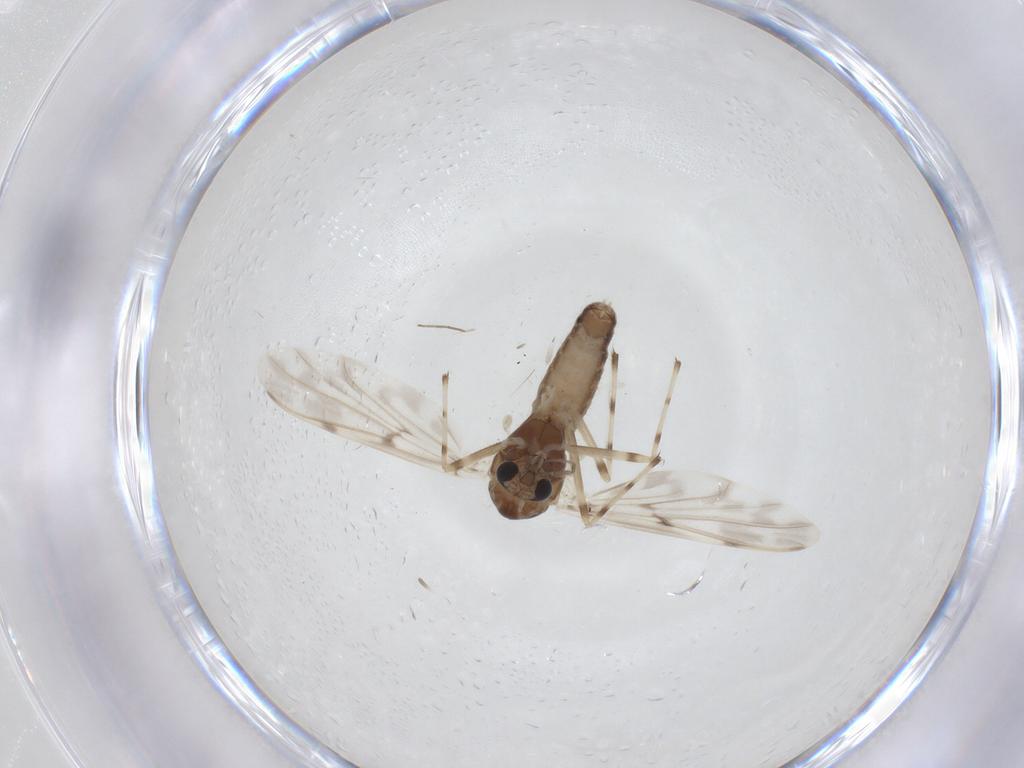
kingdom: Animalia
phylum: Arthropoda
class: Insecta
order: Diptera
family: Chironomidae
